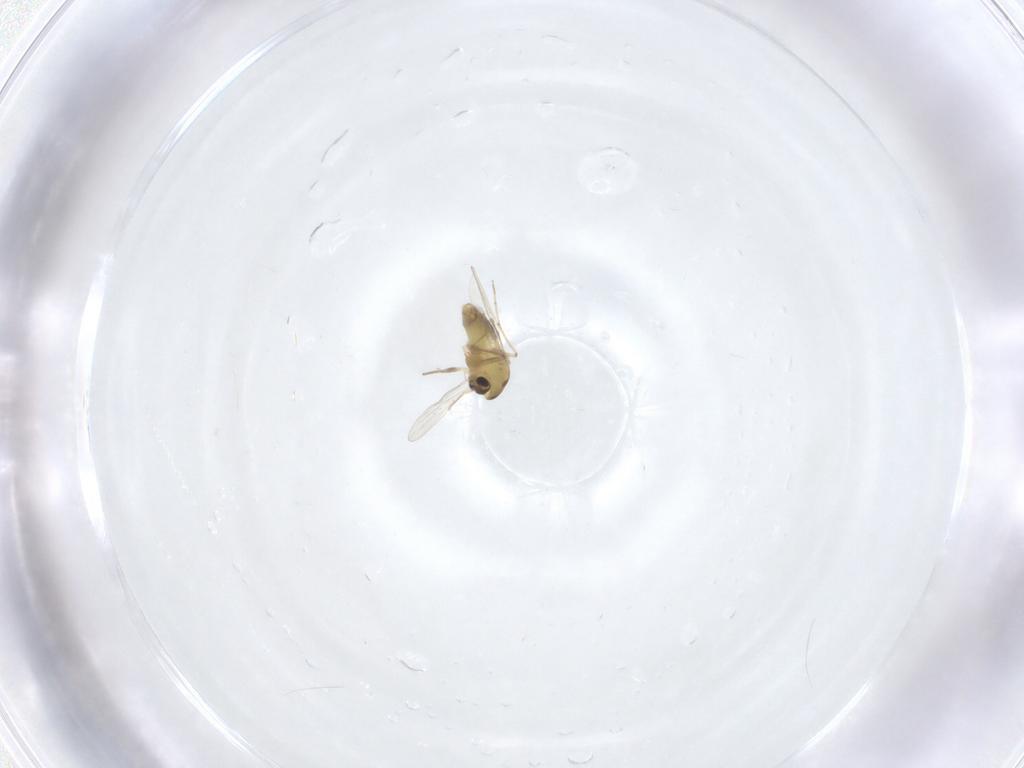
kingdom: Animalia
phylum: Arthropoda
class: Insecta
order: Diptera
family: Chironomidae
